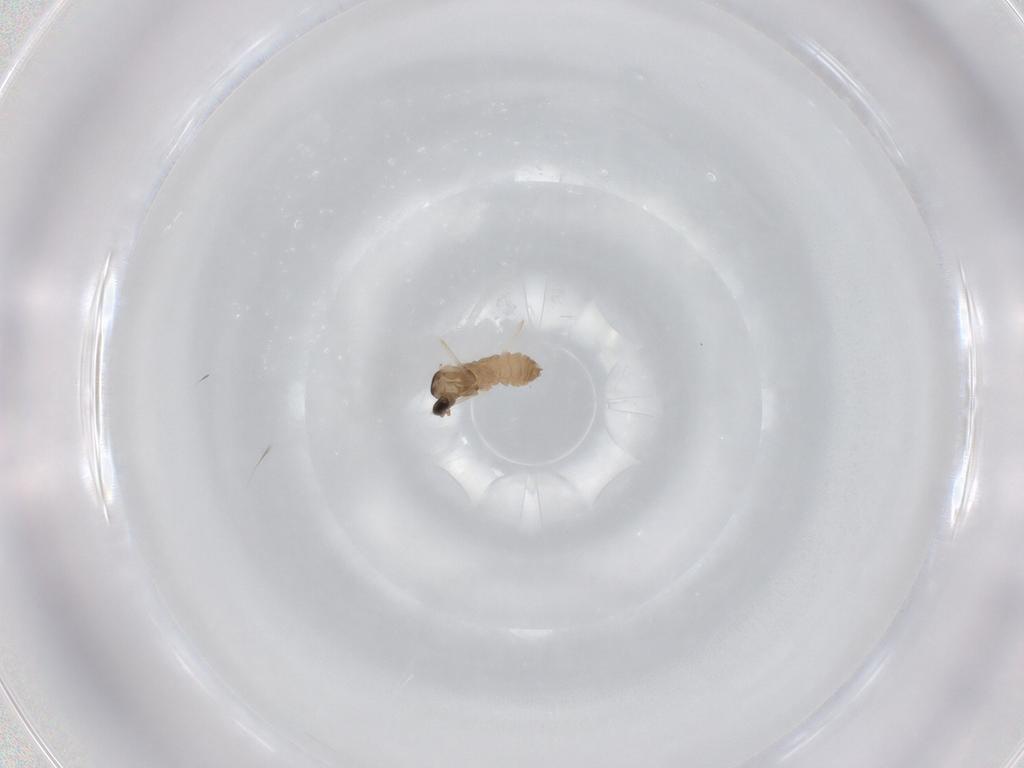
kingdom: Animalia
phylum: Arthropoda
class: Insecta
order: Diptera
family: Cecidomyiidae
